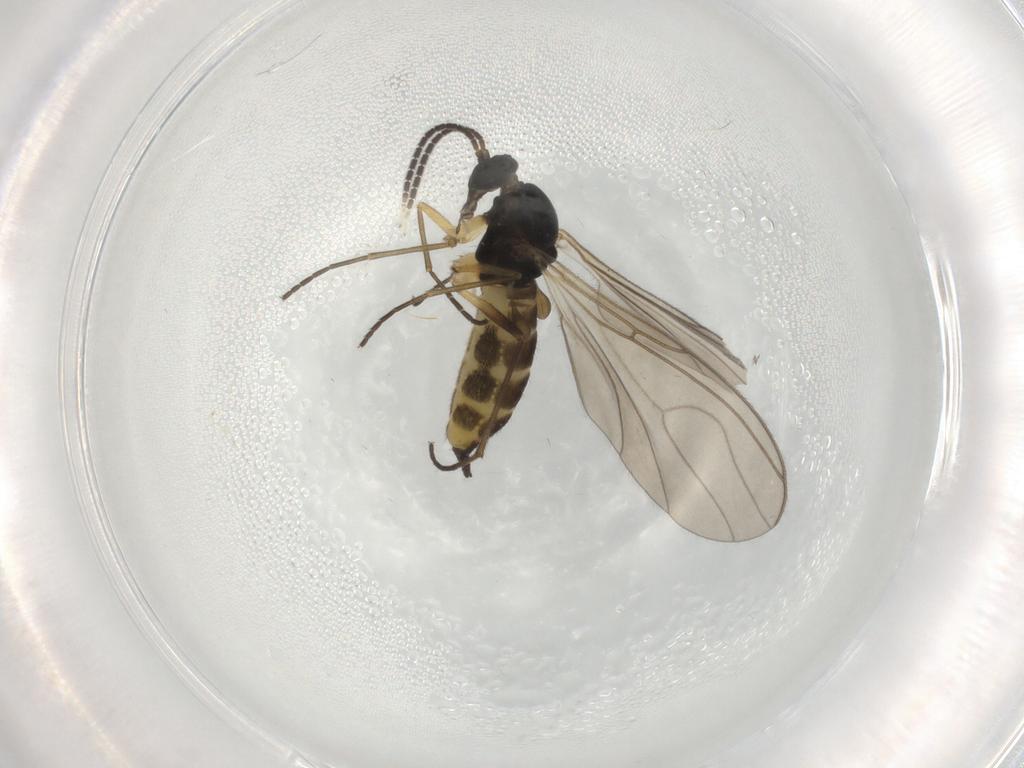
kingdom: Animalia
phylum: Arthropoda
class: Insecta
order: Diptera
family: Sciaridae
